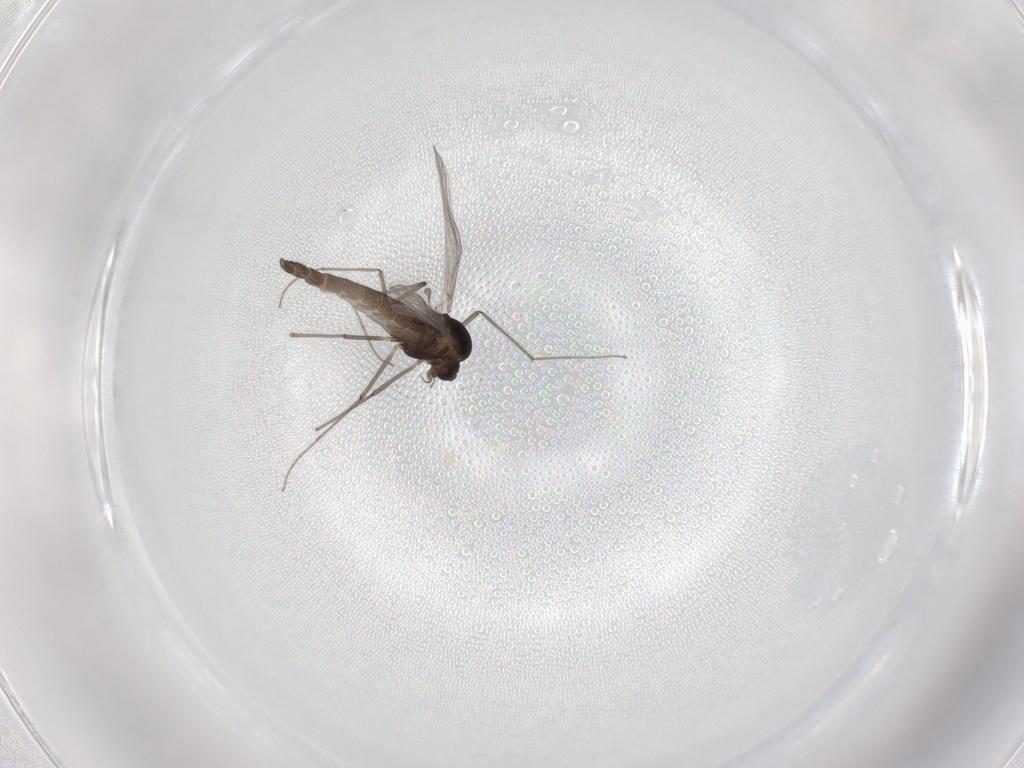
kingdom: Animalia
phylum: Arthropoda
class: Insecta
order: Diptera
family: Chironomidae
